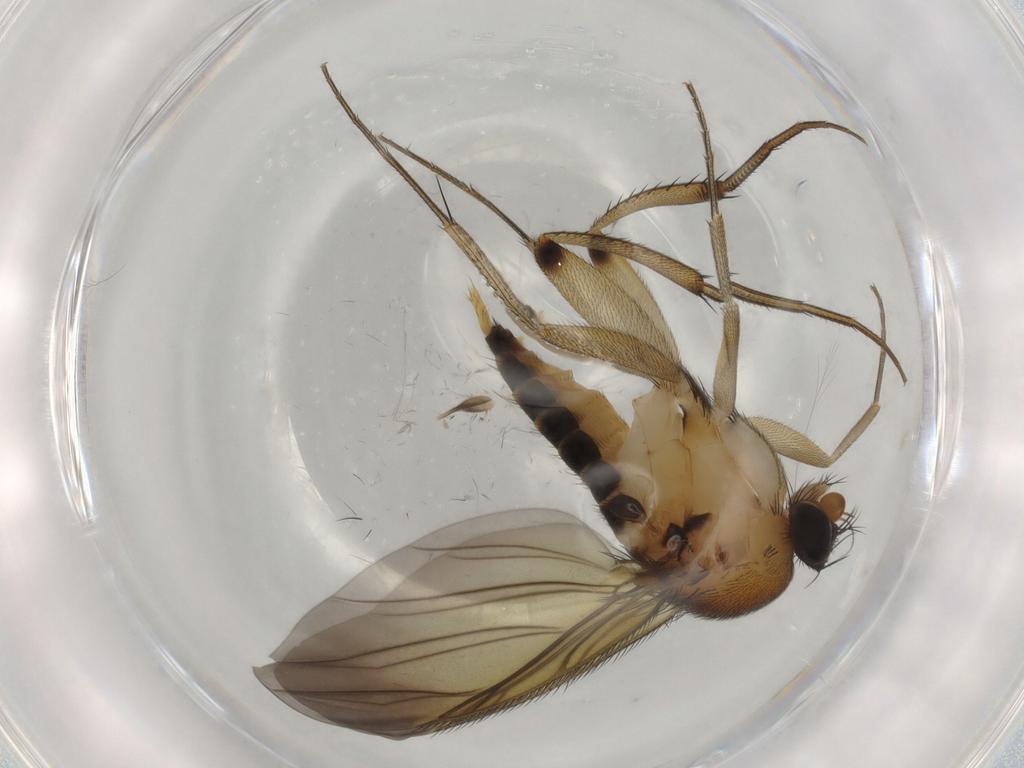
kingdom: Animalia
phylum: Arthropoda
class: Insecta
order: Diptera
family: Sciaridae
